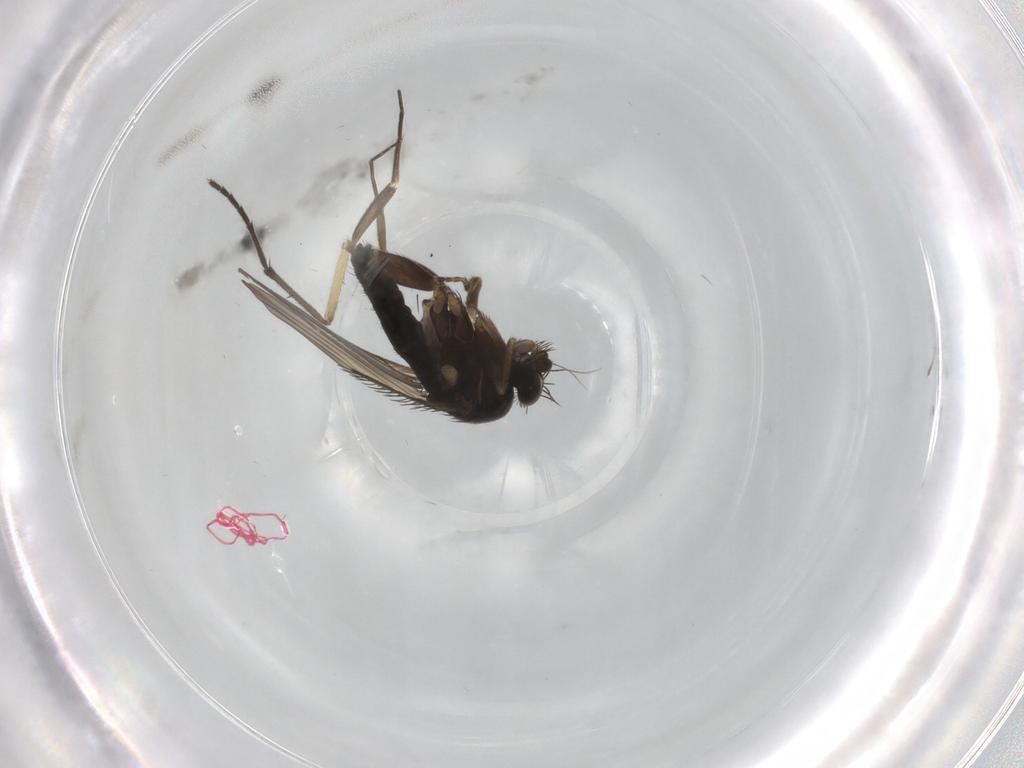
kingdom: Animalia
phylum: Arthropoda
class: Insecta
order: Diptera
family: Phoridae
